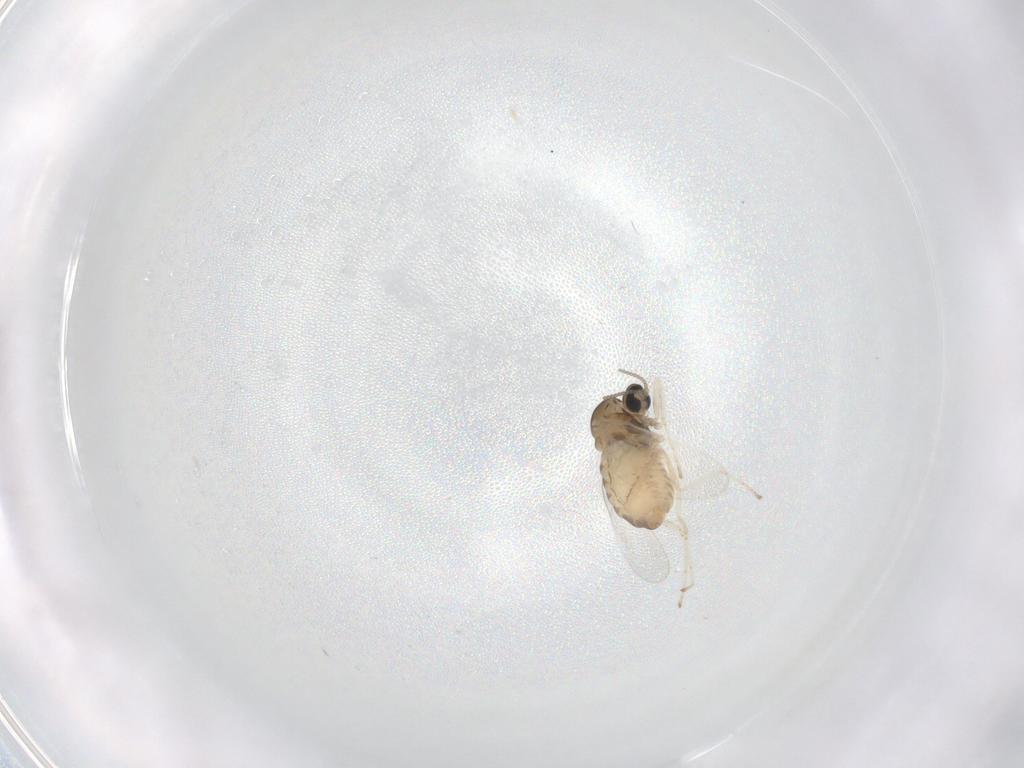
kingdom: Animalia
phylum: Arthropoda
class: Insecta
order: Diptera
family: Cecidomyiidae
